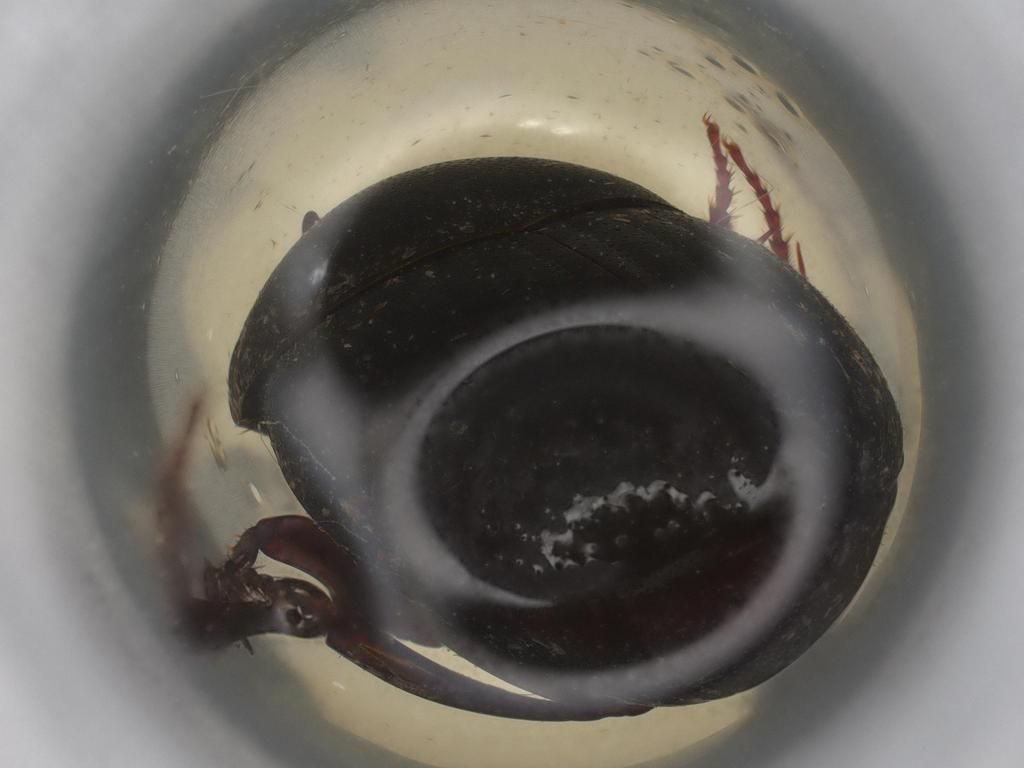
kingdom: Animalia
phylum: Arthropoda
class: Insecta
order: Coleoptera
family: Scarabaeidae
